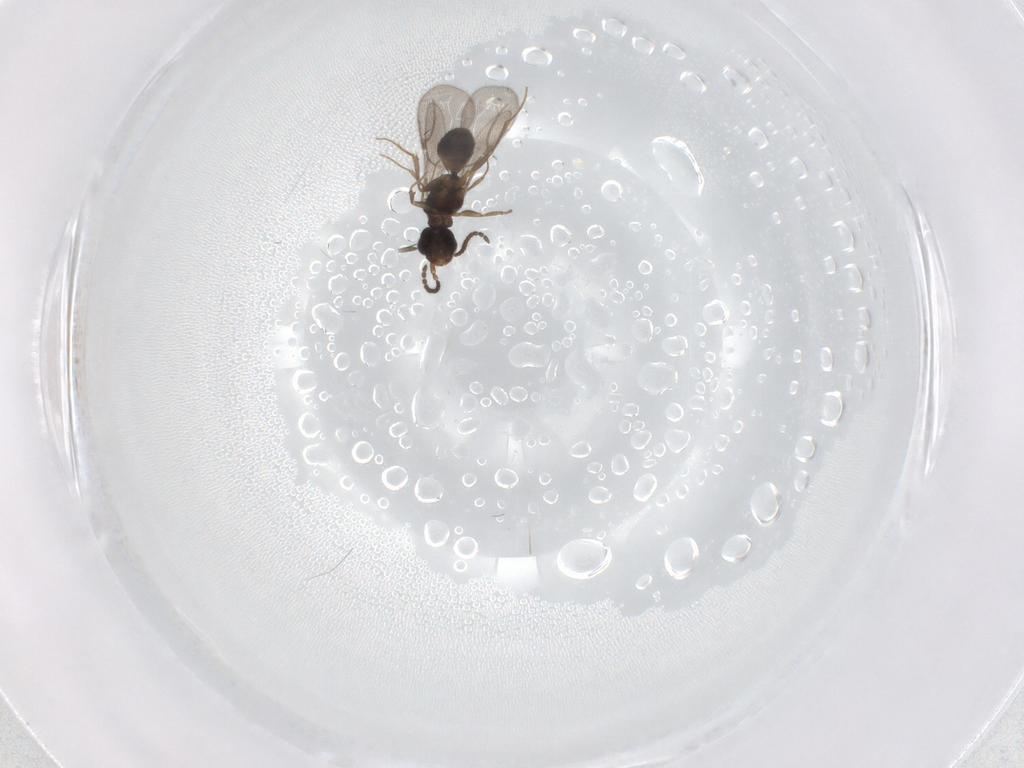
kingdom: Animalia
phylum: Arthropoda
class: Insecta
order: Hymenoptera
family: Bethylidae
